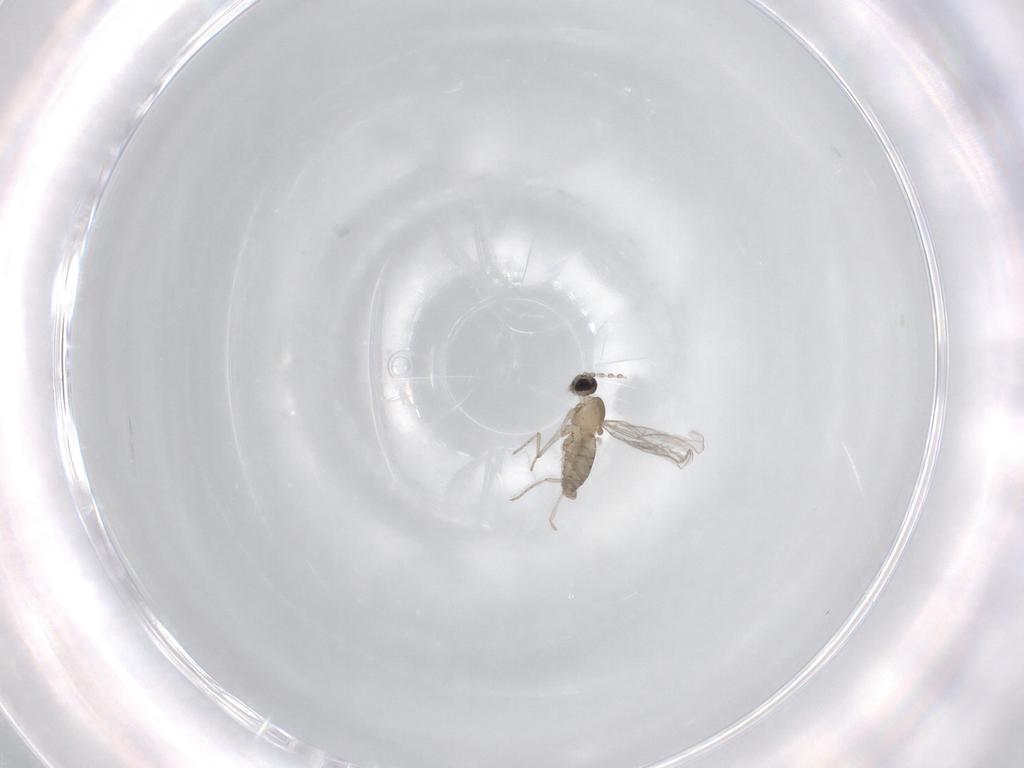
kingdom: Animalia
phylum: Arthropoda
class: Insecta
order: Diptera
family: Cecidomyiidae
